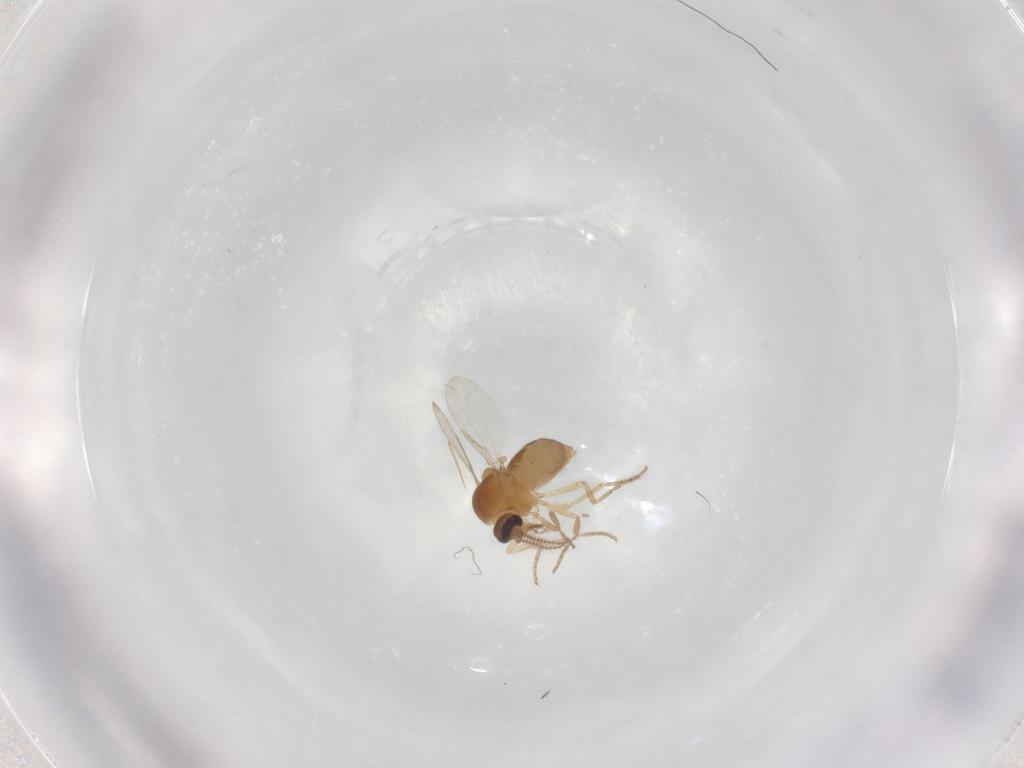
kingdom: Animalia
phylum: Arthropoda
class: Insecta
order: Diptera
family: Ceratopogonidae
